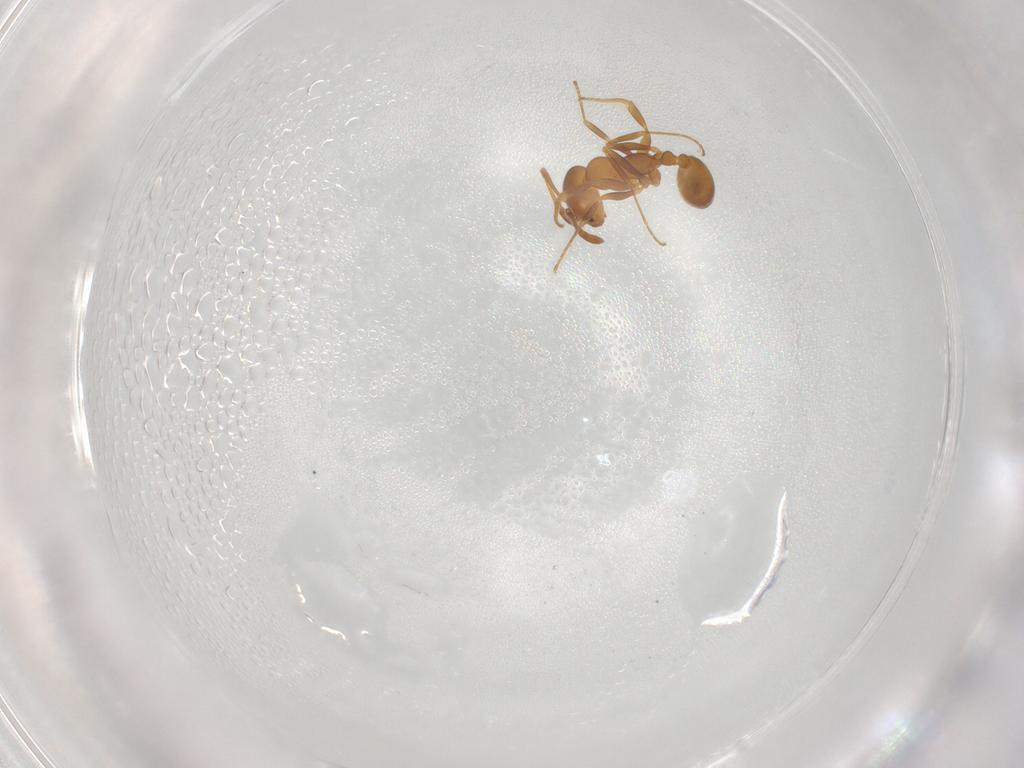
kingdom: Animalia
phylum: Arthropoda
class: Insecta
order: Hymenoptera
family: Formicidae
